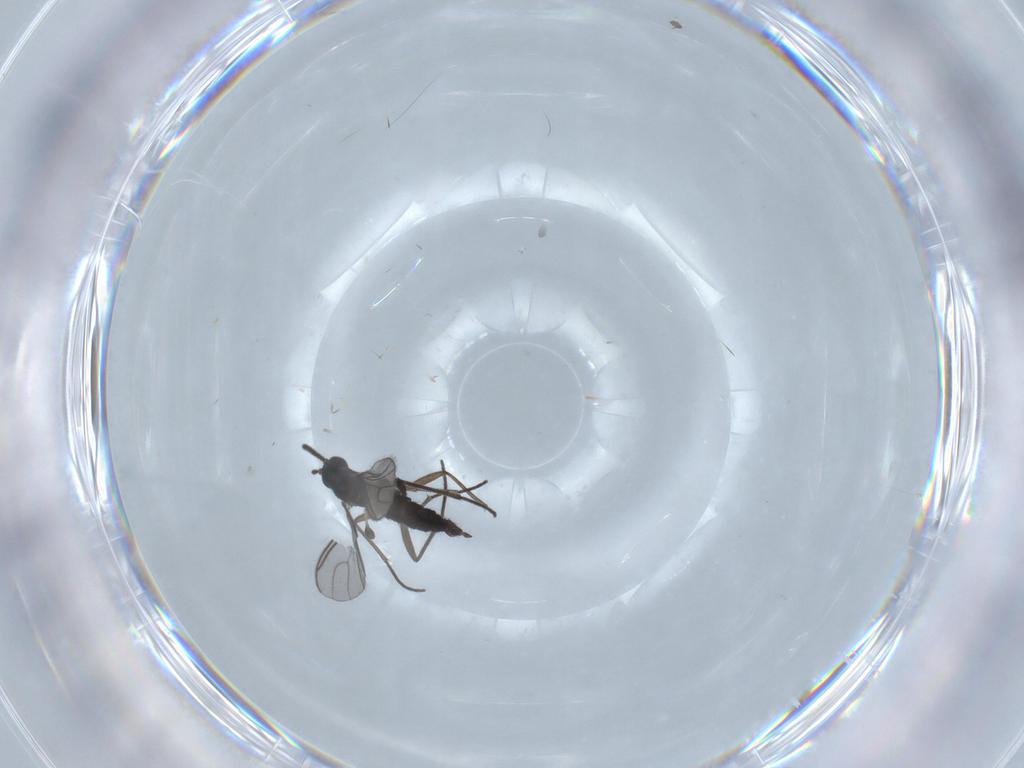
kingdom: Animalia
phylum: Arthropoda
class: Insecta
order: Diptera
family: Sciaridae
